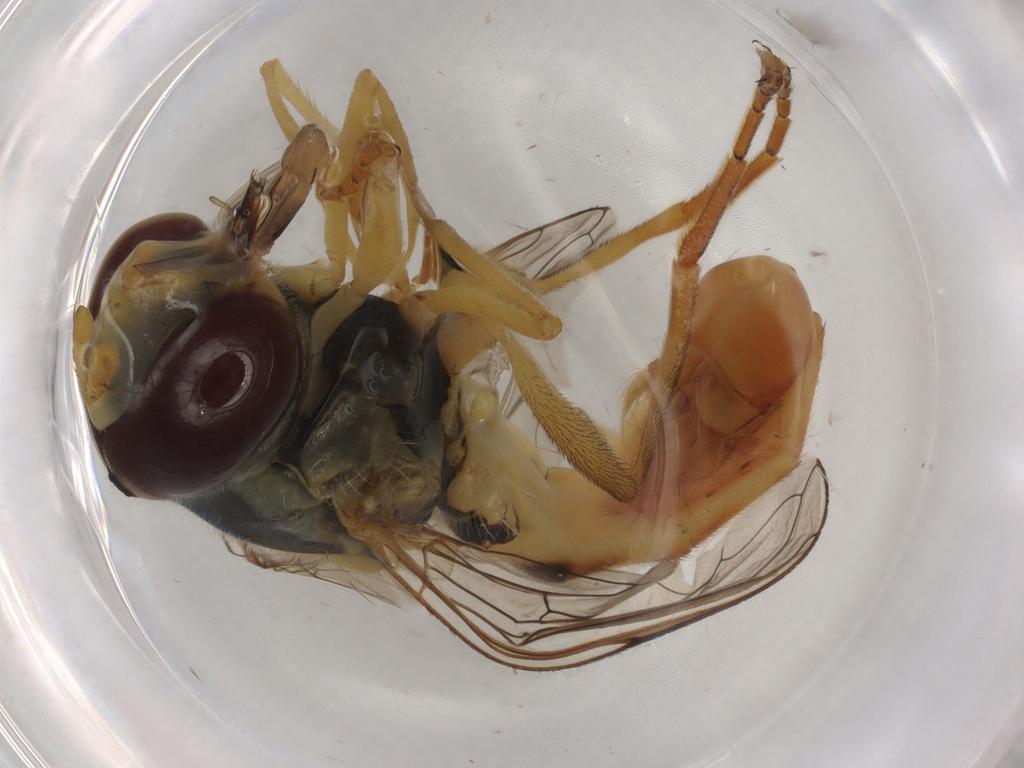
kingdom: Animalia
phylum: Arthropoda
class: Insecta
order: Diptera
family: Syrphidae
